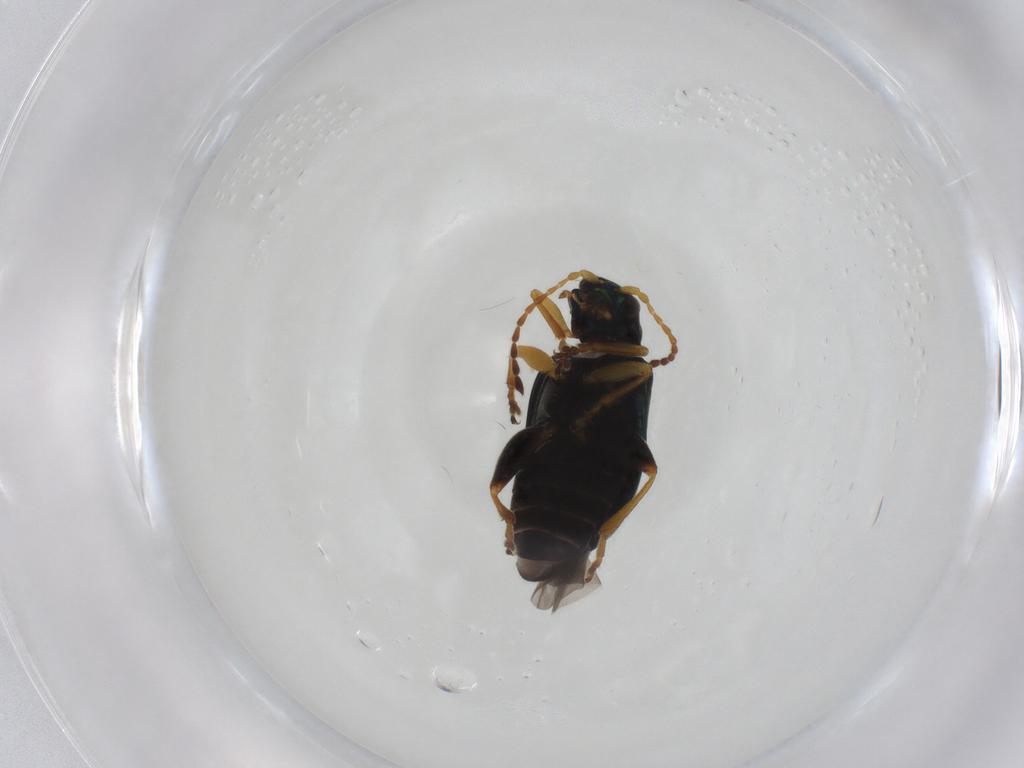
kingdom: Animalia
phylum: Arthropoda
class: Insecta
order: Coleoptera
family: Chrysomelidae
